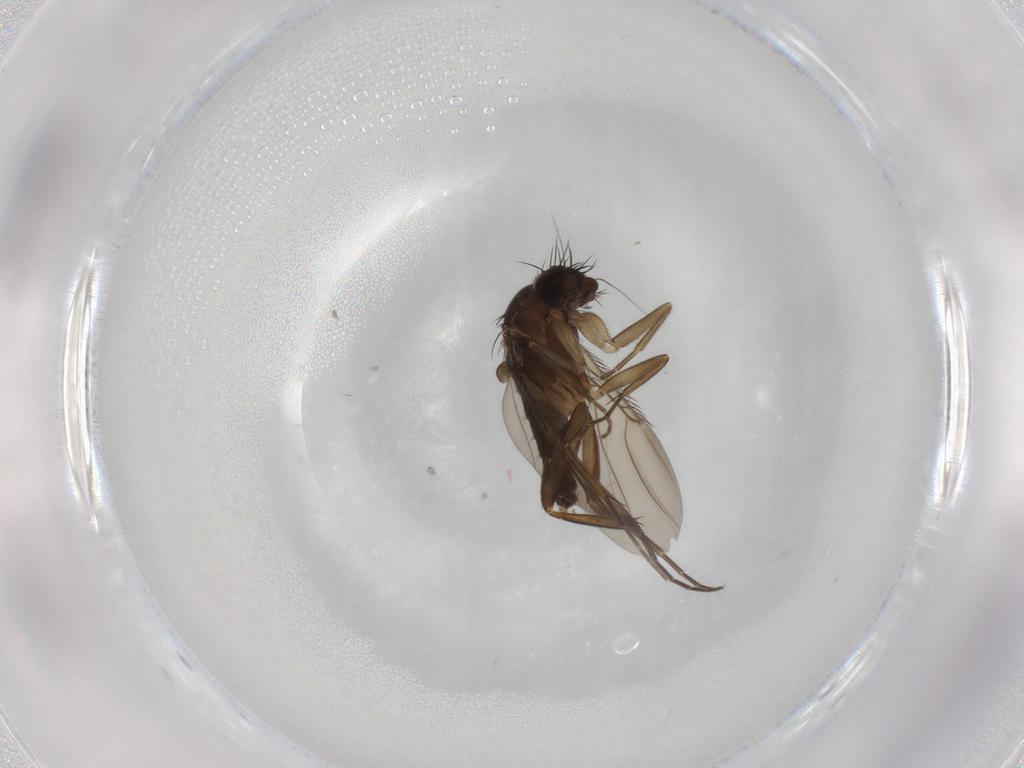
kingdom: Animalia
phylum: Arthropoda
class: Insecta
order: Diptera
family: Phoridae
